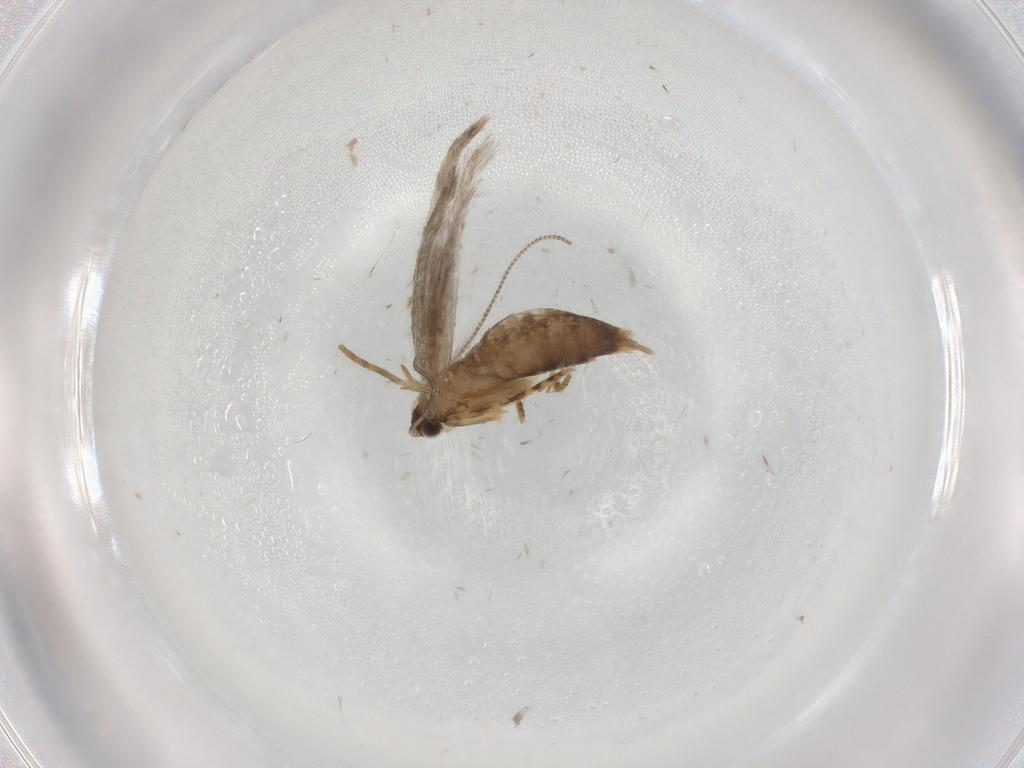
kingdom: Animalia
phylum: Arthropoda
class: Insecta
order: Lepidoptera
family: Tineidae
